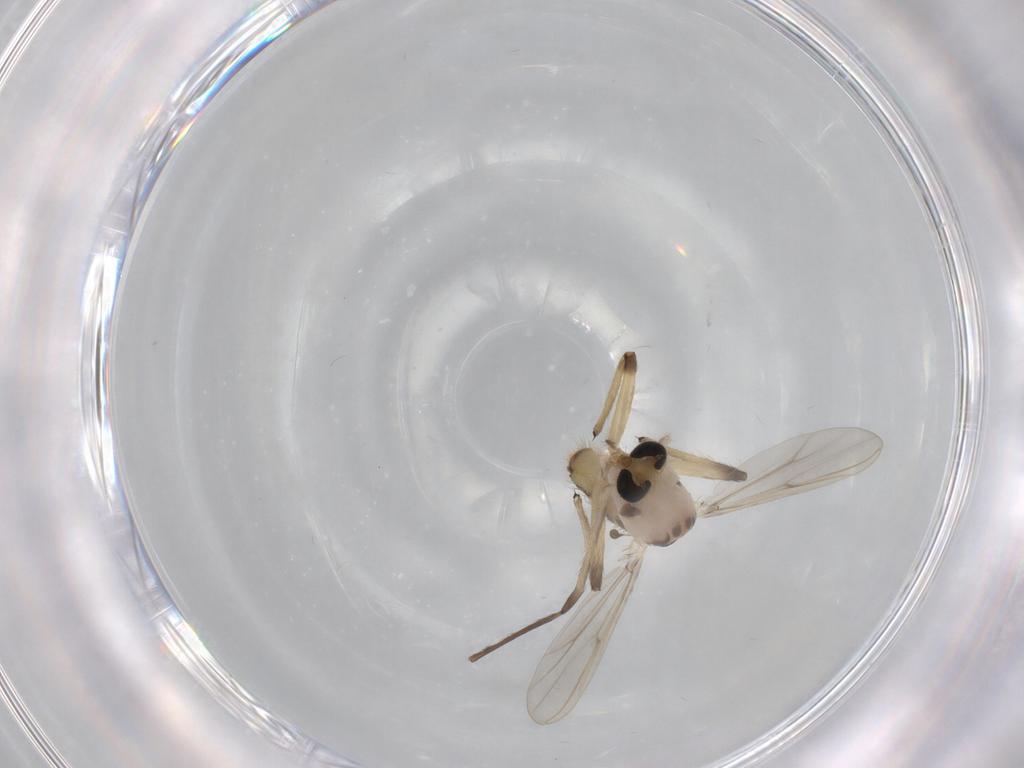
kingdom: Animalia
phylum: Arthropoda
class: Insecta
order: Diptera
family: Chironomidae
